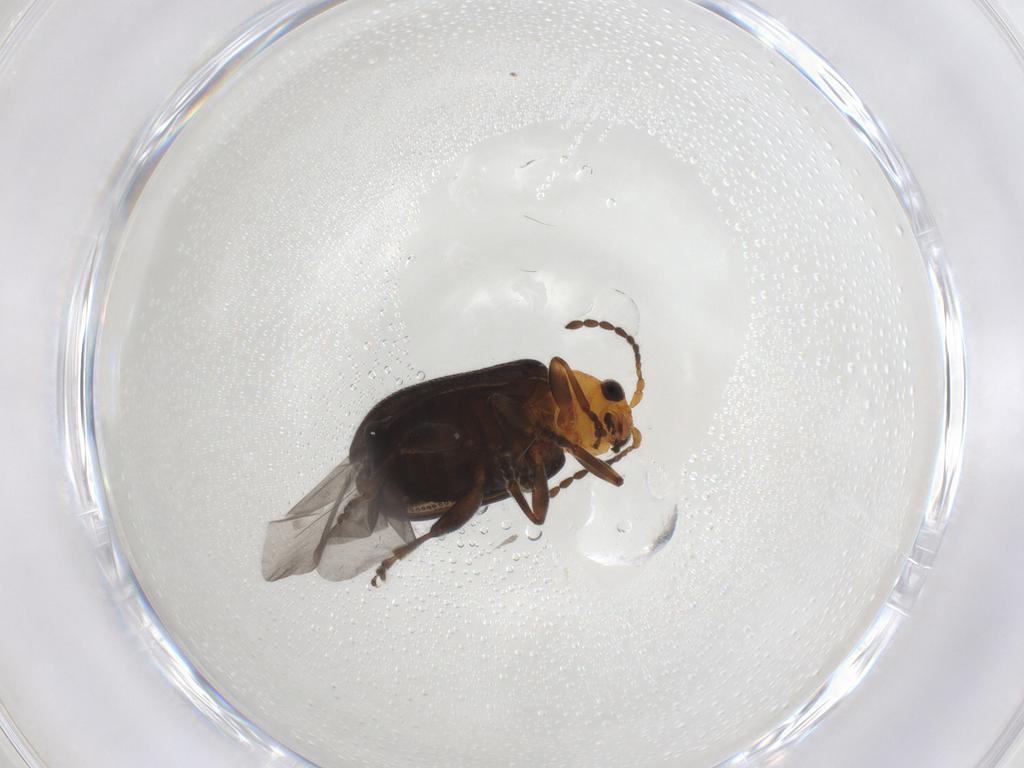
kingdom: Animalia
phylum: Arthropoda
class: Insecta
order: Coleoptera
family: Chrysomelidae
